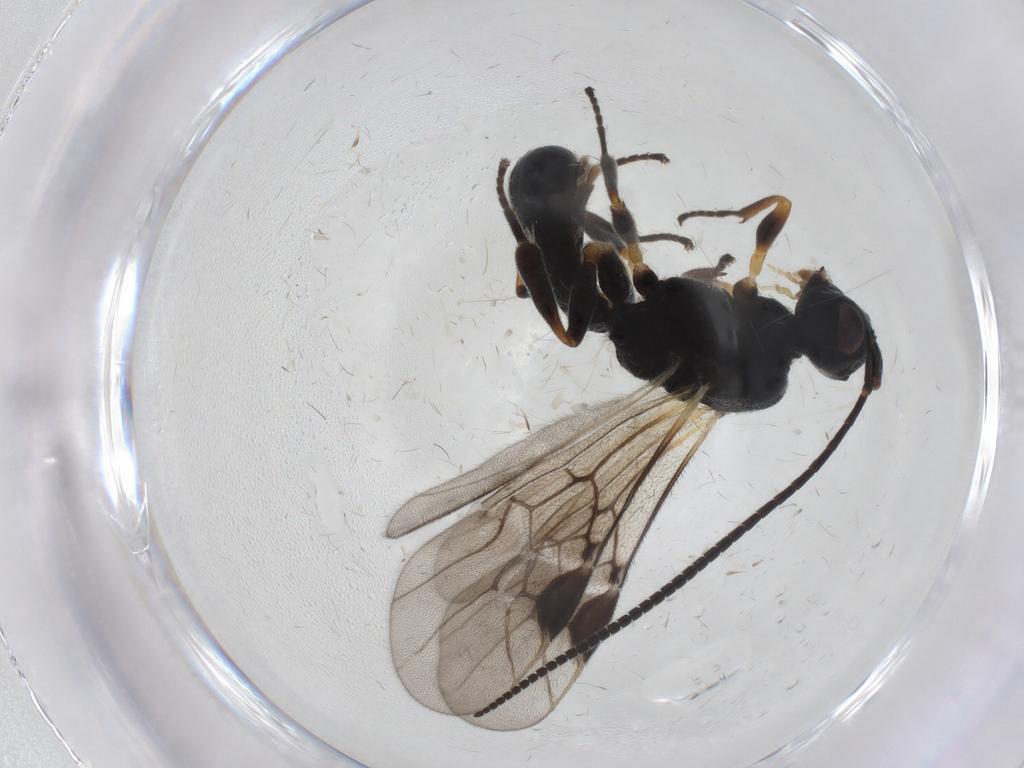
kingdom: Animalia
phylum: Arthropoda
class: Insecta
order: Hymenoptera
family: Braconidae
